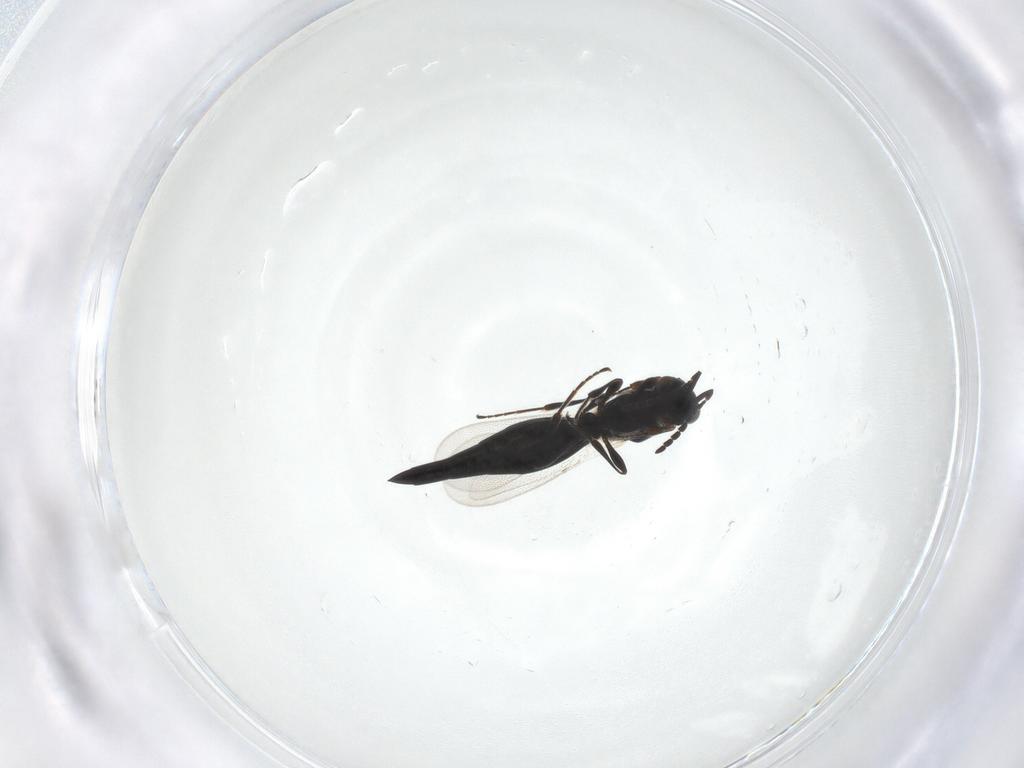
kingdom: Animalia
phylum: Arthropoda
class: Insecta
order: Hymenoptera
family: Platygastridae
